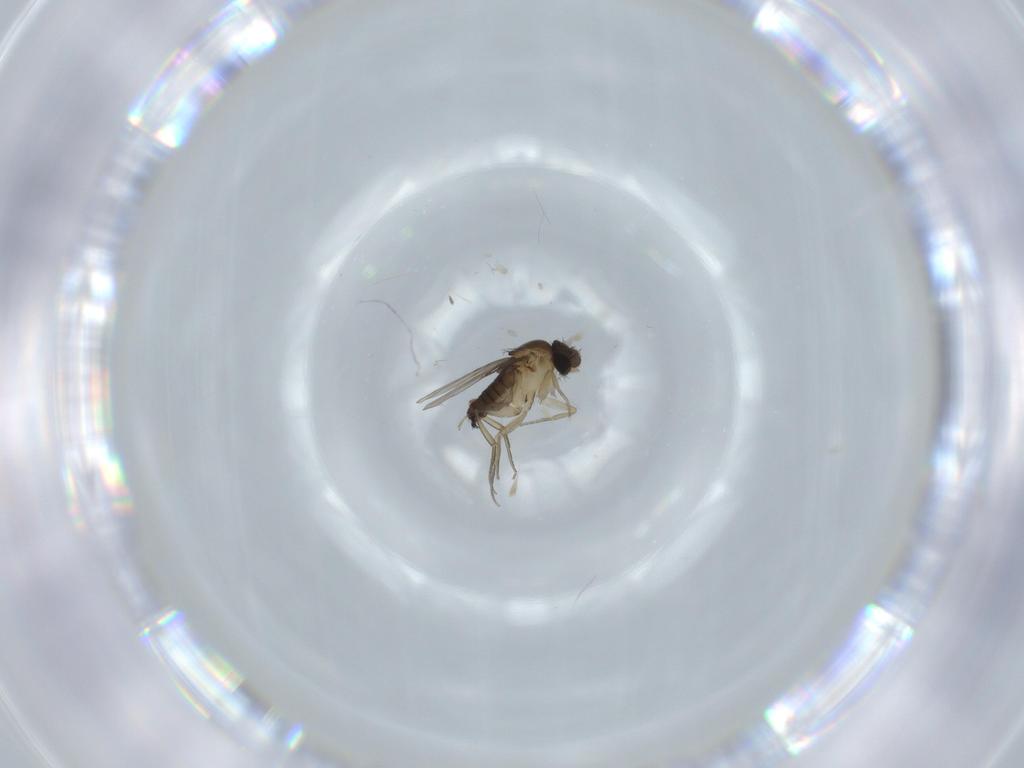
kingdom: Animalia
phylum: Arthropoda
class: Insecta
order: Diptera
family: Phoridae
